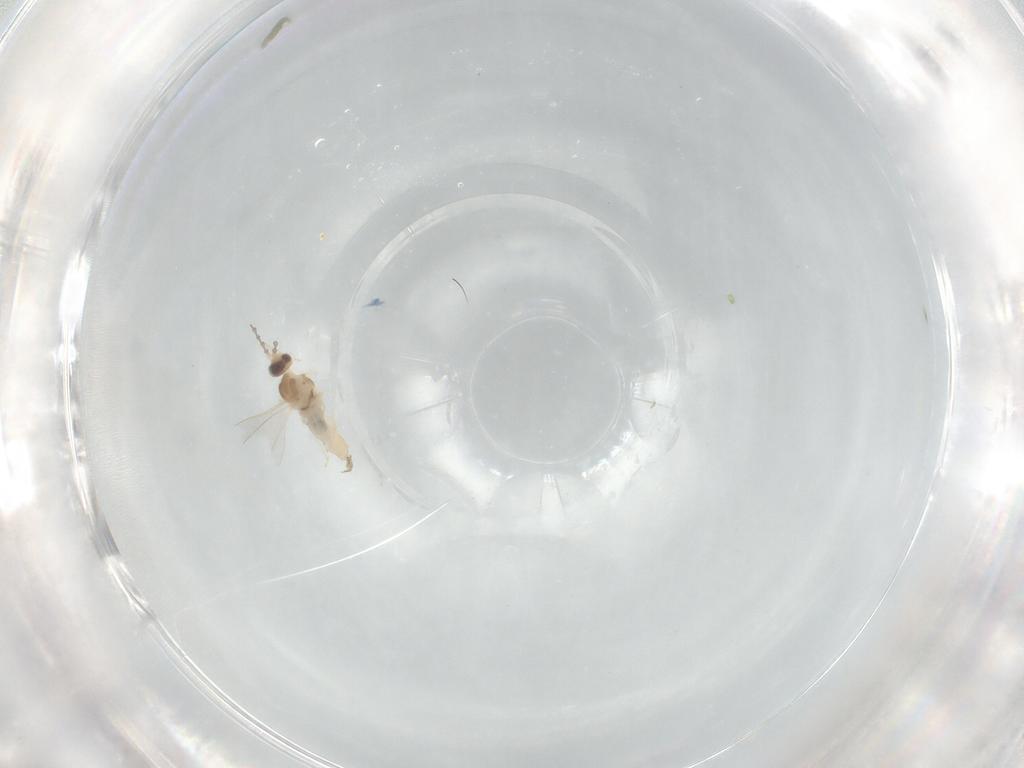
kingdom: Animalia
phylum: Arthropoda
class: Insecta
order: Diptera
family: Cecidomyiidae
